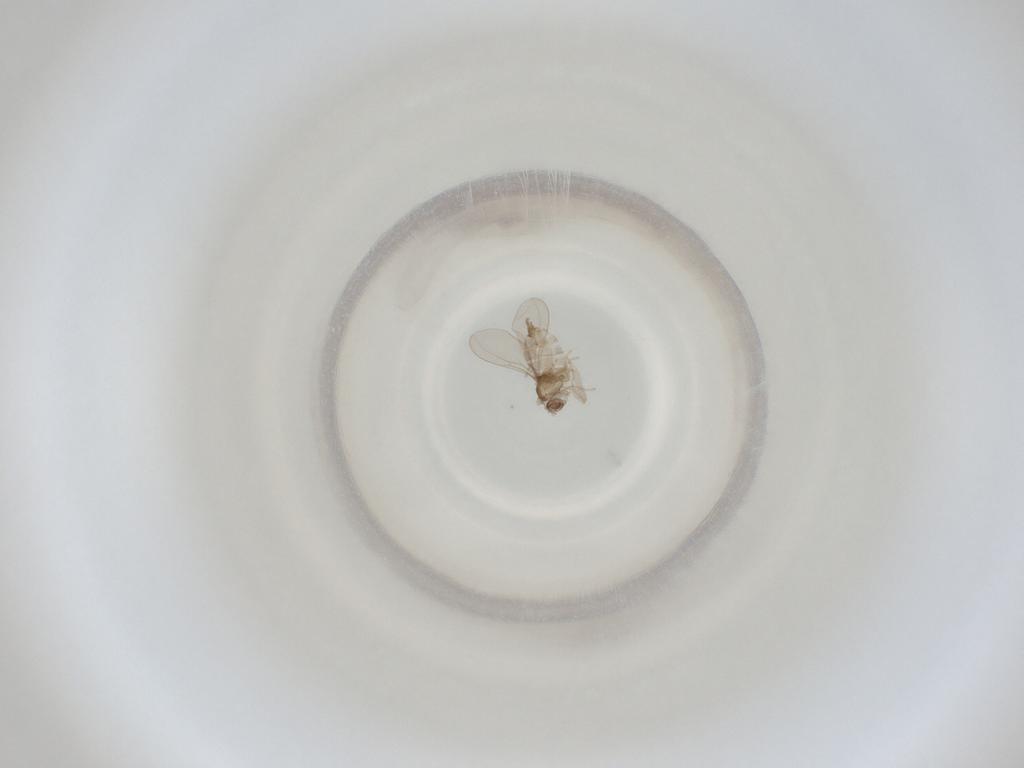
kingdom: Animalia
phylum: Arthropoda
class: Insecta
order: Diptera
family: Cecidomyiidae
